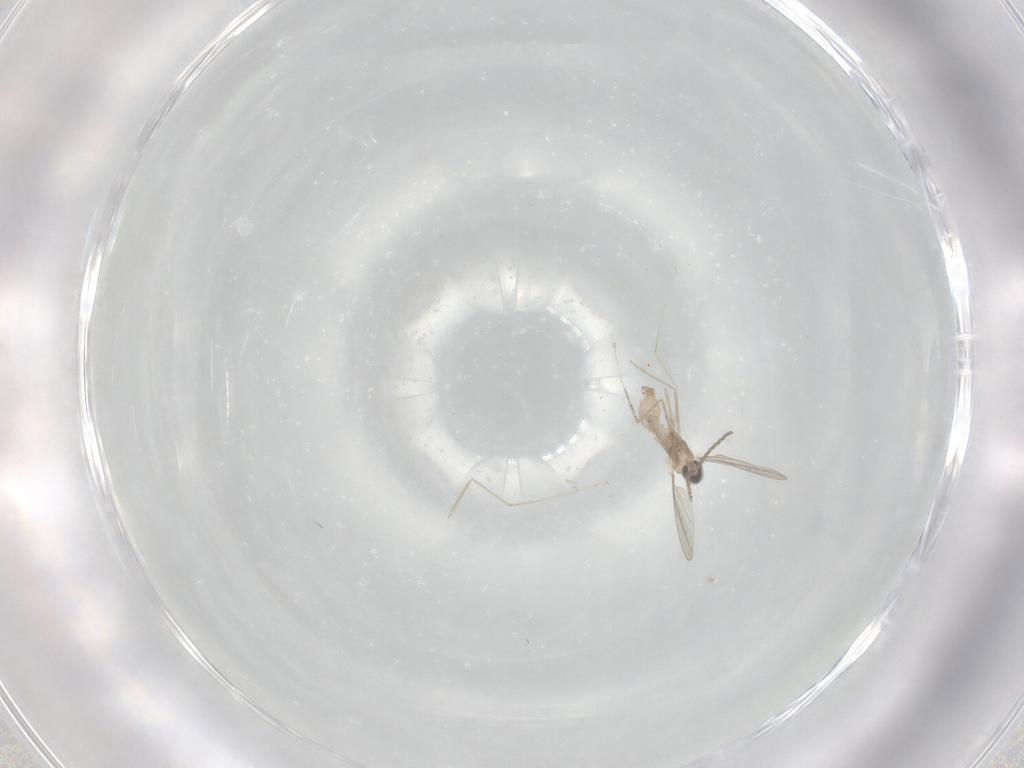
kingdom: Animalia
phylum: Arthropoda
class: Insecta
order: Diptera
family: Cecidomyiidae
